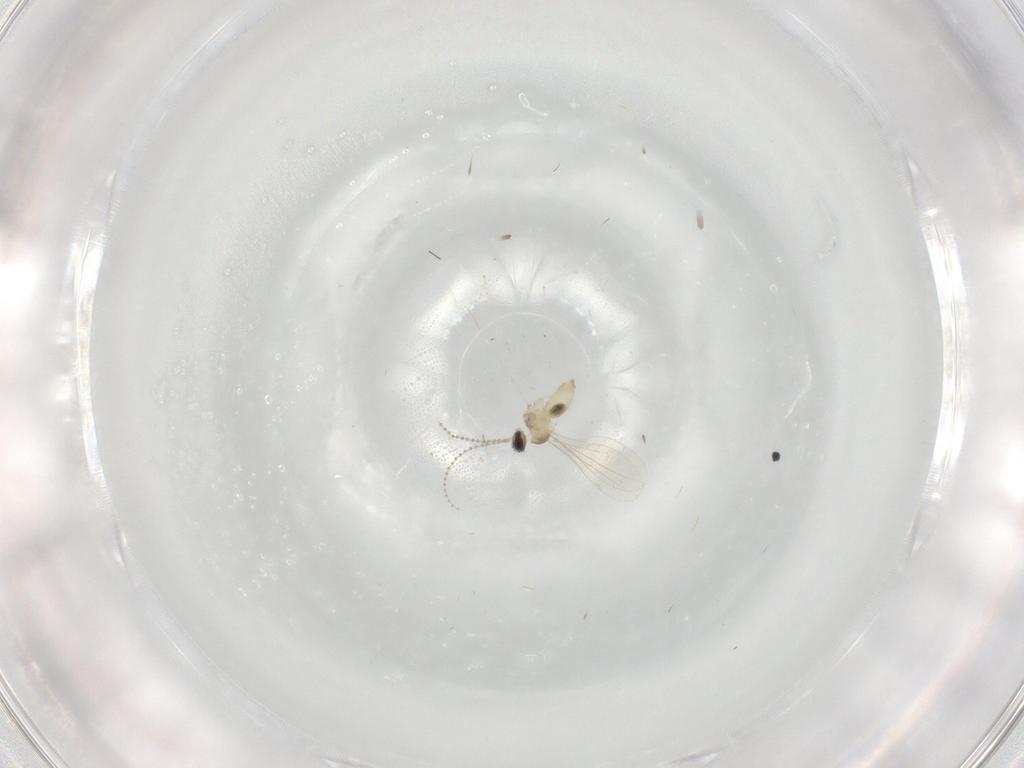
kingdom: Animalia
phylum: Arthropoda
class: Insecta
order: Diptera
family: Cecidomyiidae
